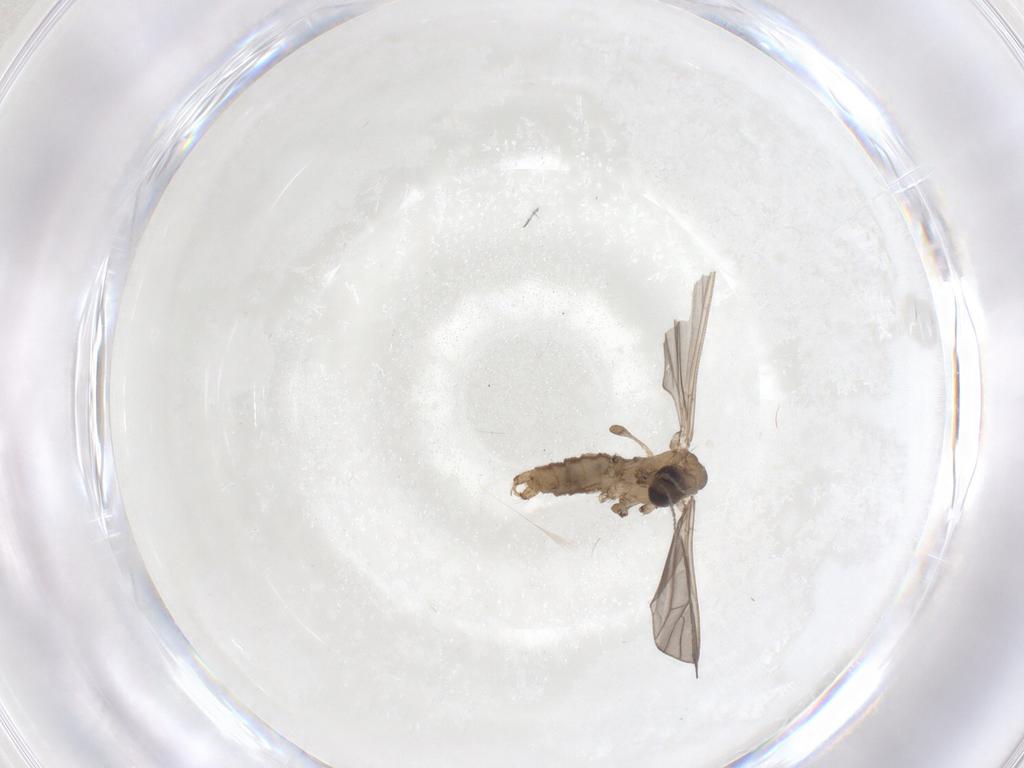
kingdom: Animalia
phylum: Arthropoda
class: Insecta
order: Diptera
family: Limoniidae
